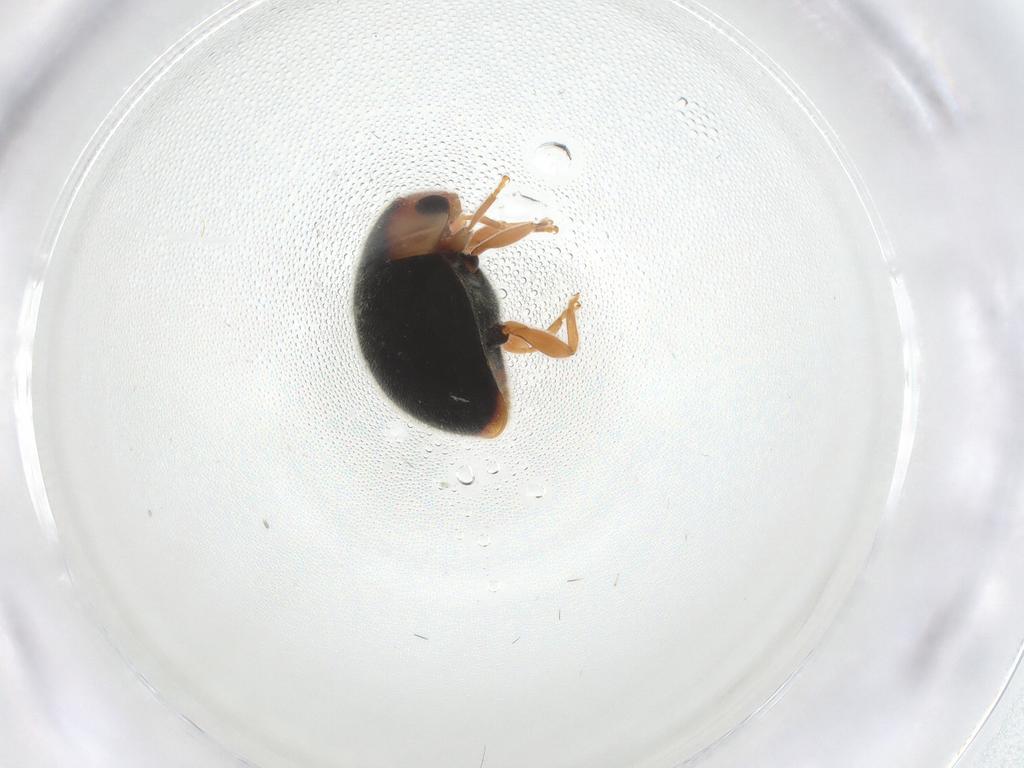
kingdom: Animalia
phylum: Arthropoda
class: Insecta
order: Coleoptera
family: Coccinellidae
